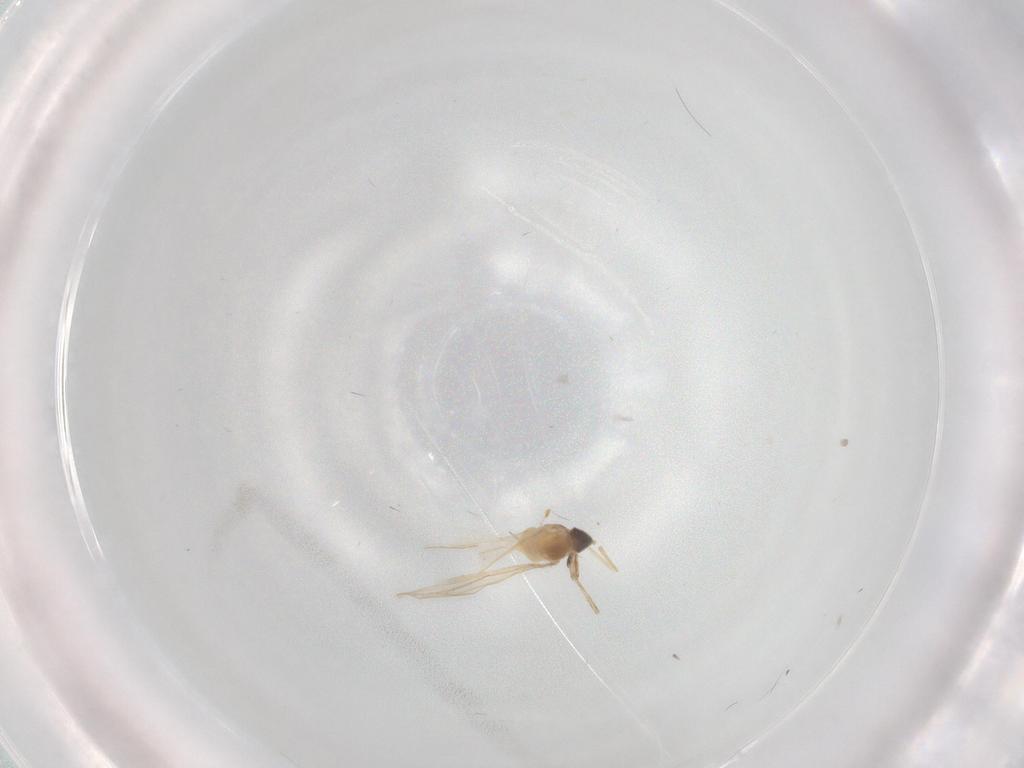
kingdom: Animalia
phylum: Arthropoda
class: Insecta
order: Diptera
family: Cecidomyiidae
